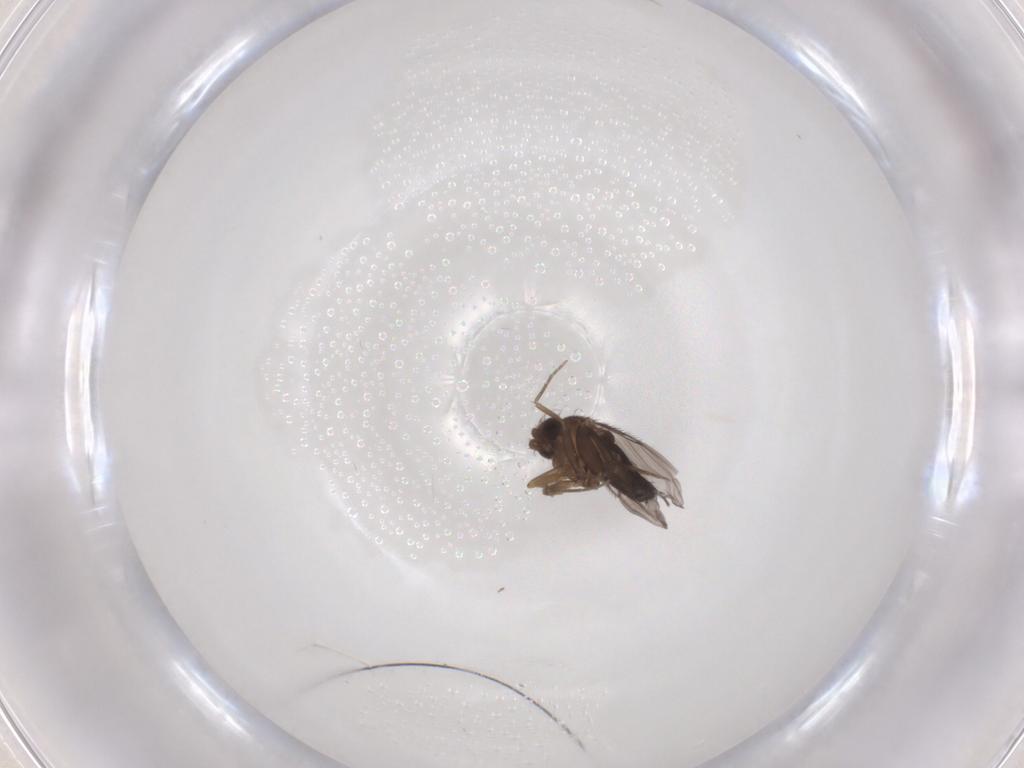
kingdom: Animalia
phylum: Arthropoda
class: Insecta
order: Diptera
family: Phoridae
